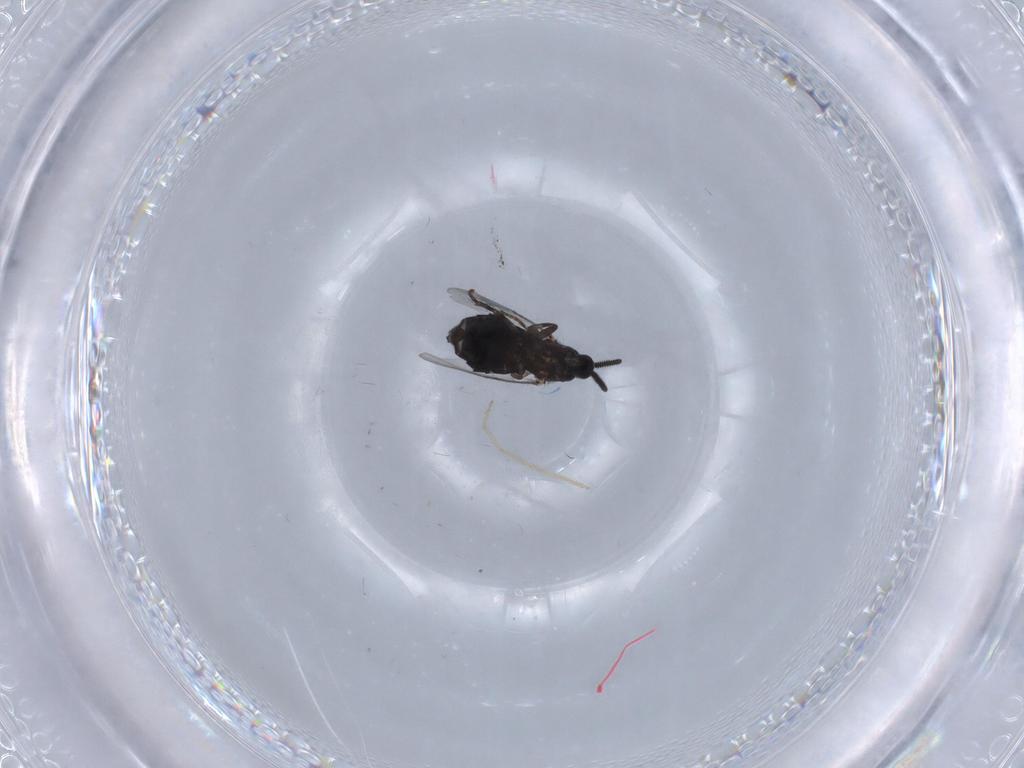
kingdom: Animalia
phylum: Arthropoda
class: Insecta
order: Diptera
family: Calliphoridae
